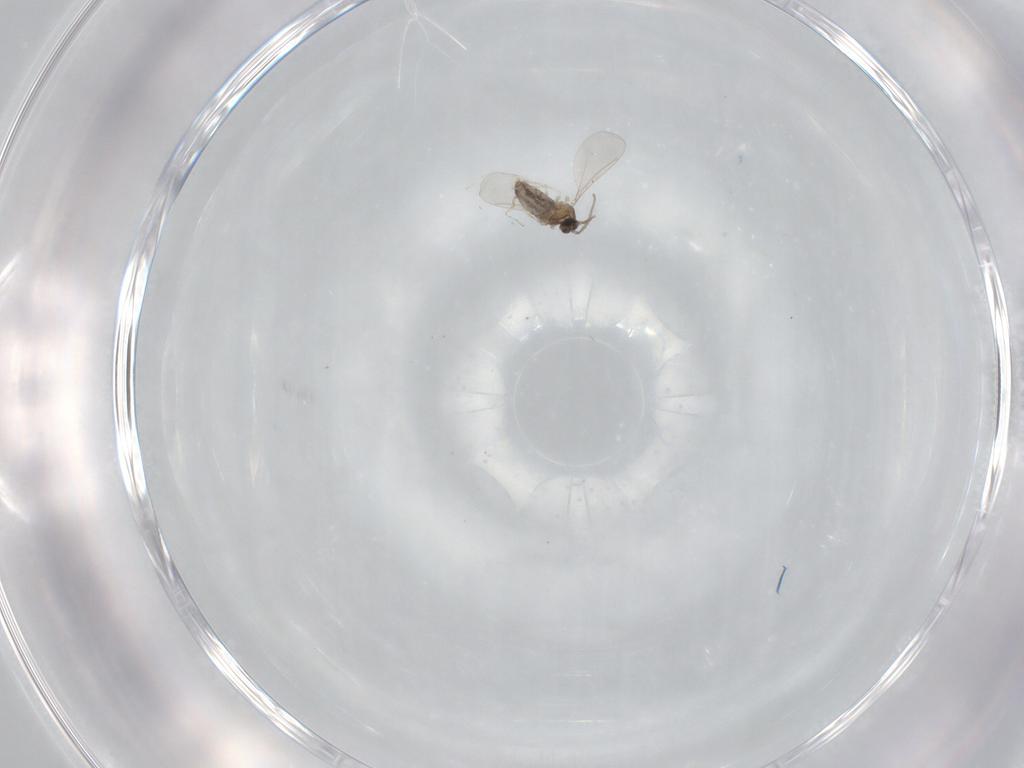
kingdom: Animalia
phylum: Arthropoda
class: Insecta
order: Diptera
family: Cecidomyiidae
